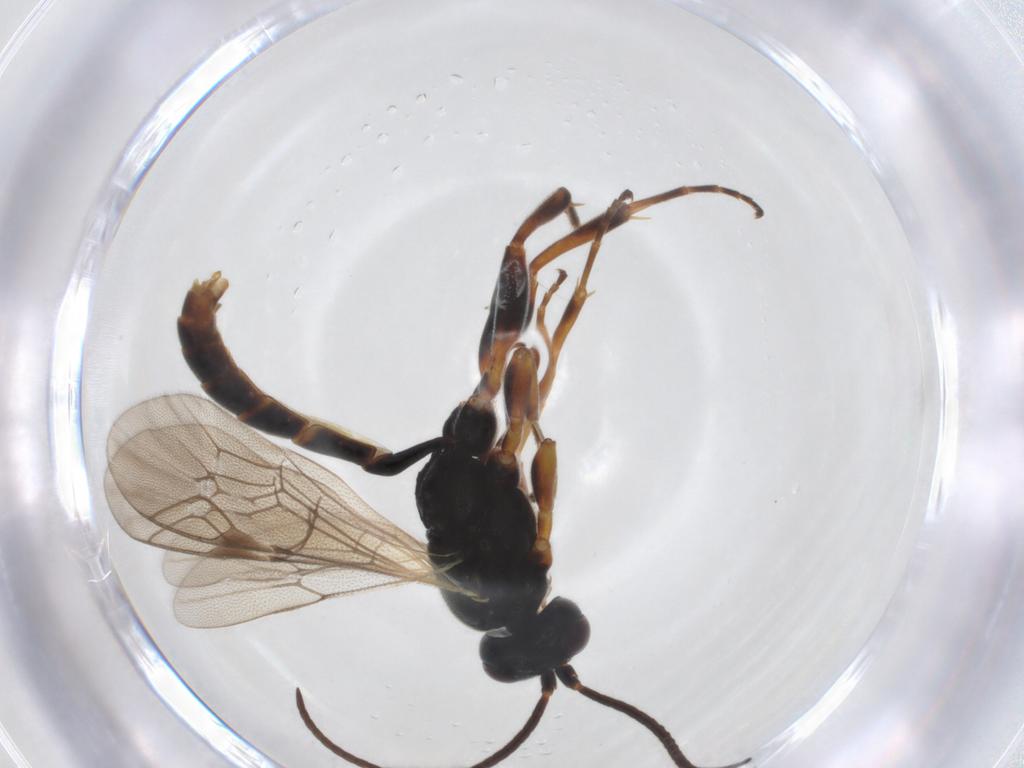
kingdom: Animalia
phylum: Arthropoda
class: Insecta
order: Hymenoptera
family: Ichneumonidae
